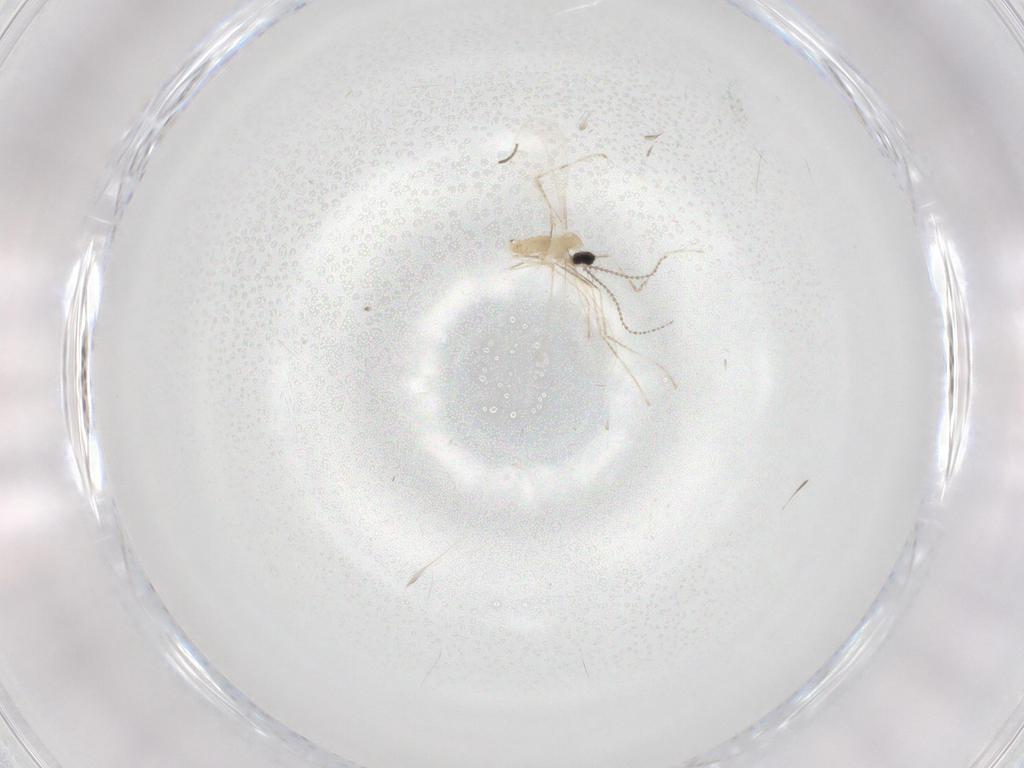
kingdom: Animalia
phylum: Arthropoda
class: Insecta
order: Diptera
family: Cecidomyiidae
